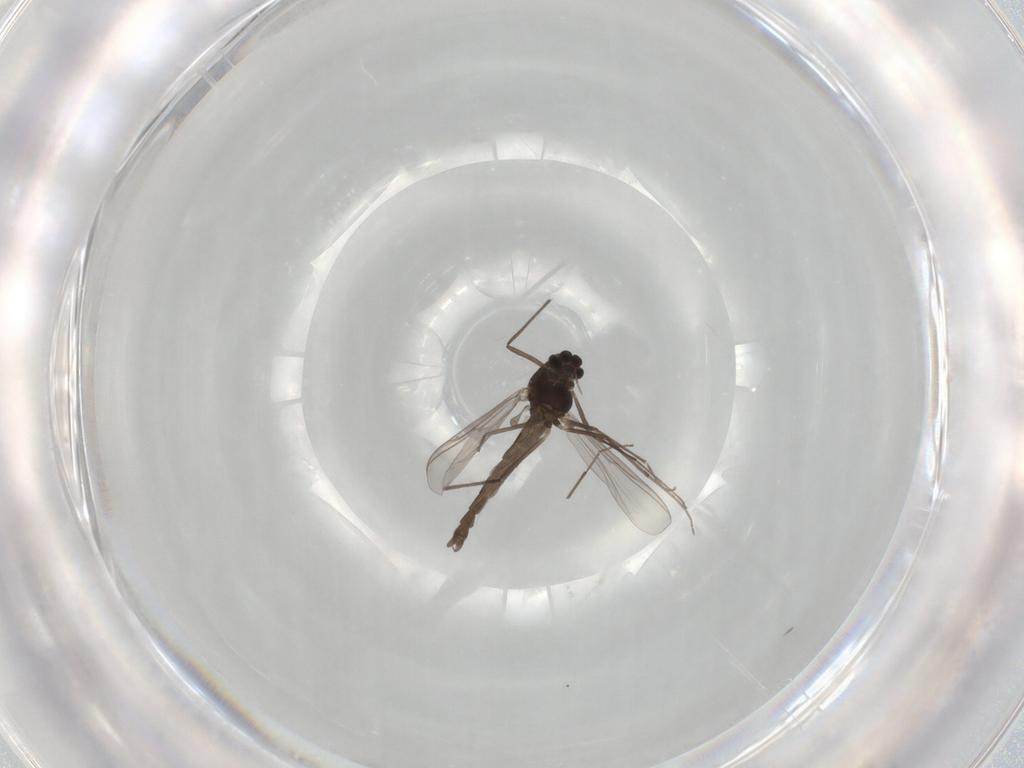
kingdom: Animalia
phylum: Arthropoda
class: Insecta
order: Diptera
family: Chironomidae
